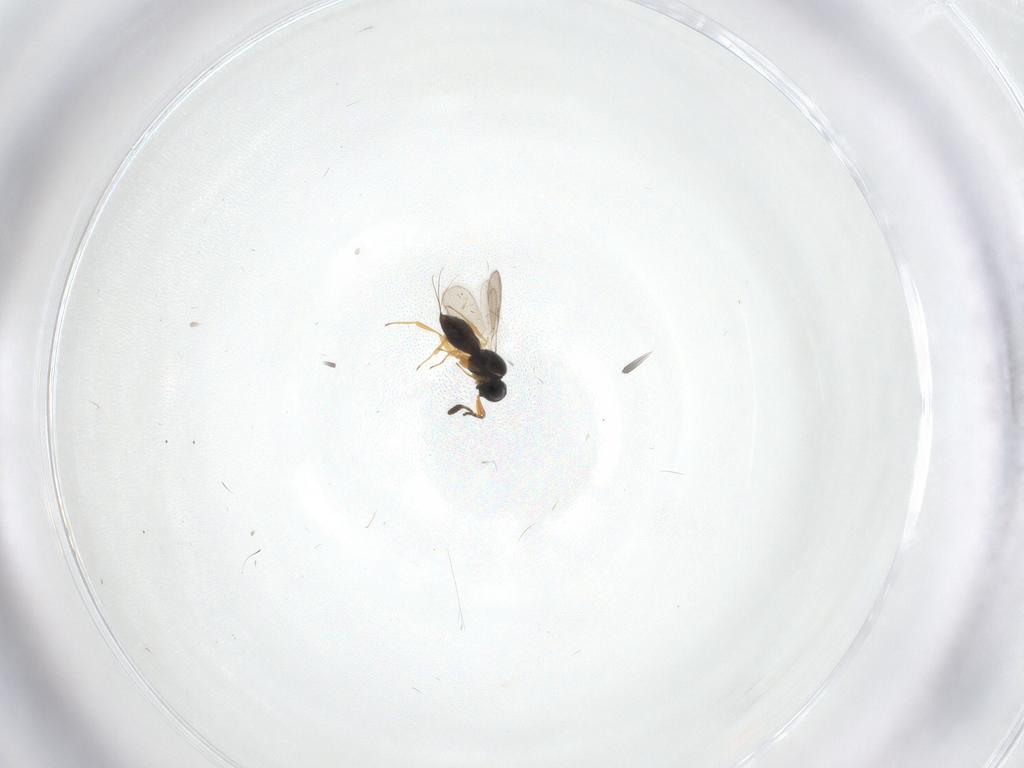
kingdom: Animalia
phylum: Arthropoda
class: Insecta
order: Hymenoptera
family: Scelionidae
